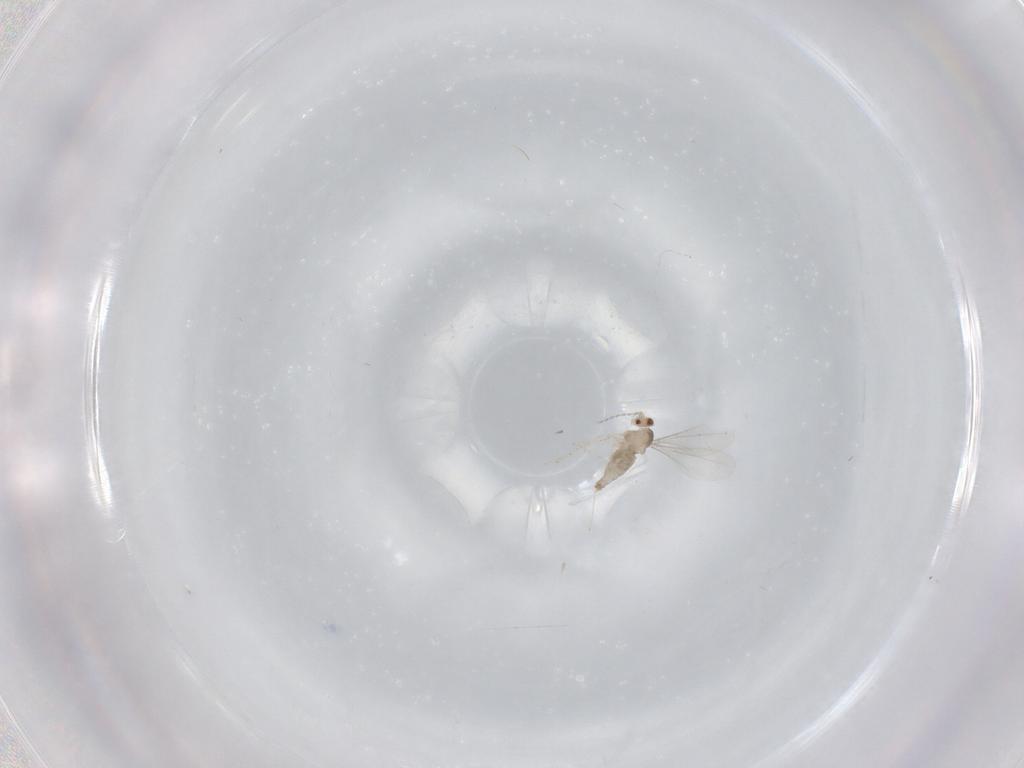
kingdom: Animalia
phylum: Arthropoda
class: Insecta
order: Diptera
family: Cecidomyiidae
